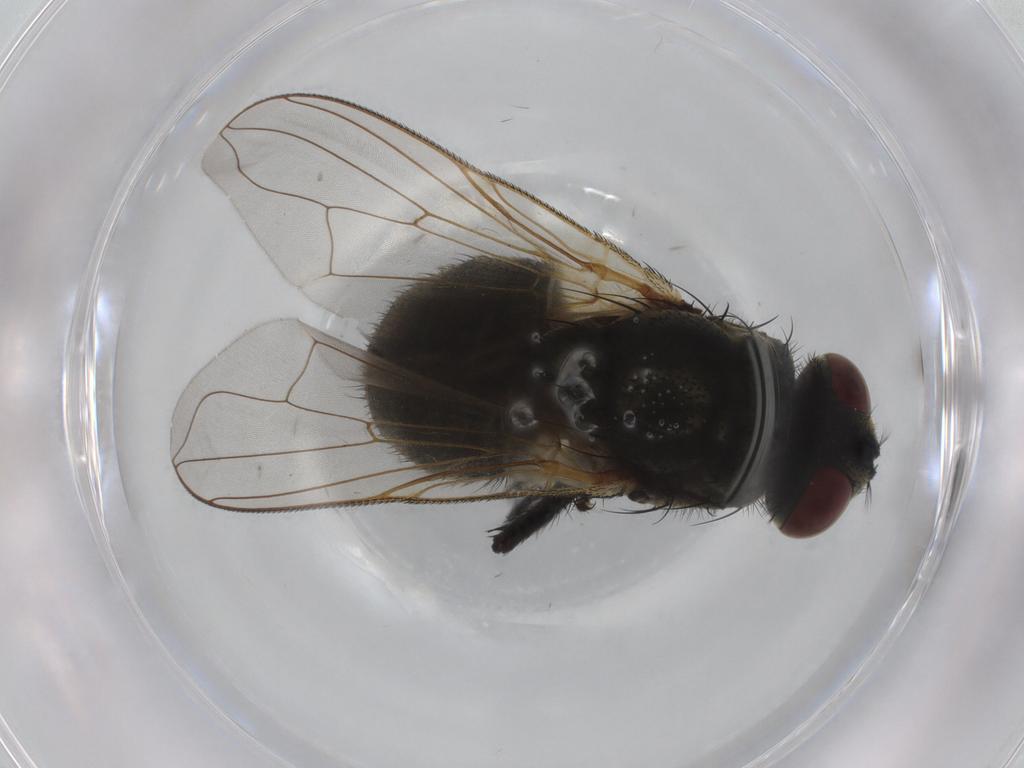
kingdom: Animalia
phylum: Arthropoda
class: Insecta
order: Diptera
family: Muscidae
